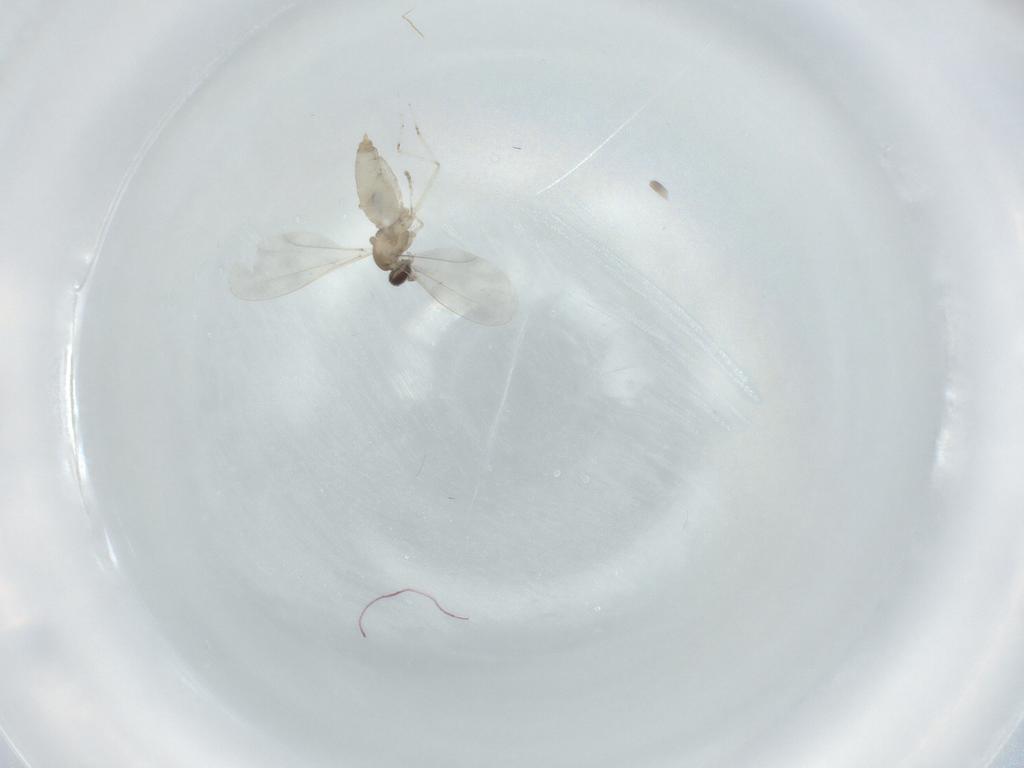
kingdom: Animalia
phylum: Arthropoda
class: Insecta
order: Diptera
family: Cecidomyiidae
